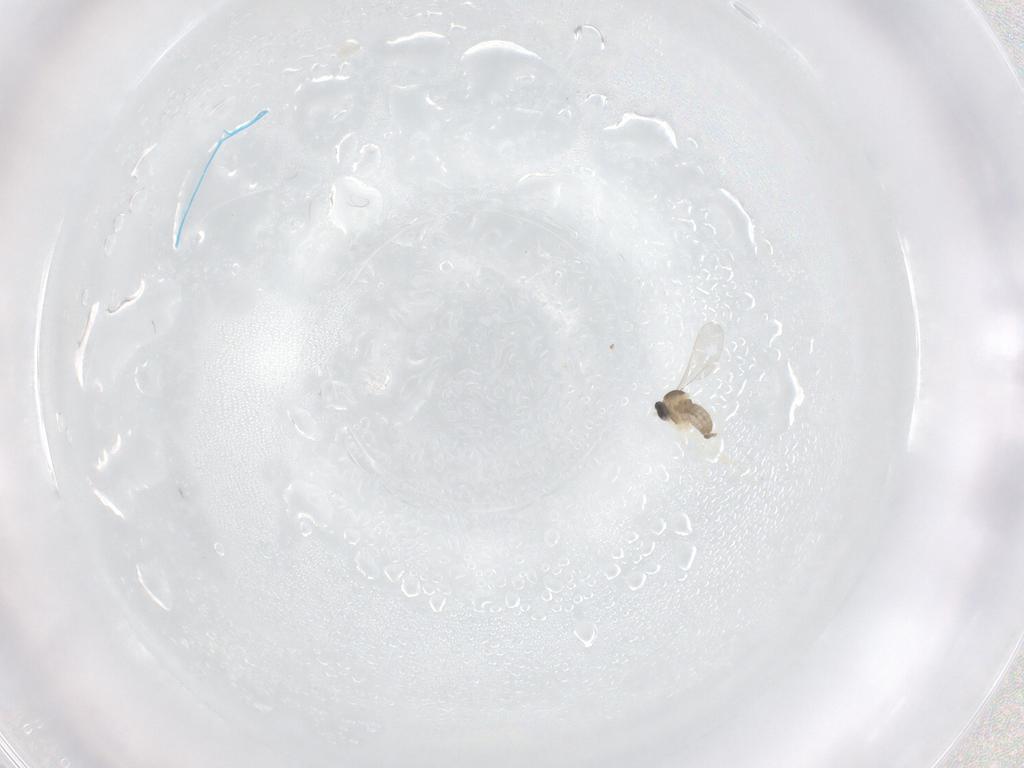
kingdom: Animalia
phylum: Arthropoda
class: Insecta
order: Diptera
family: Cecidomyiidae
